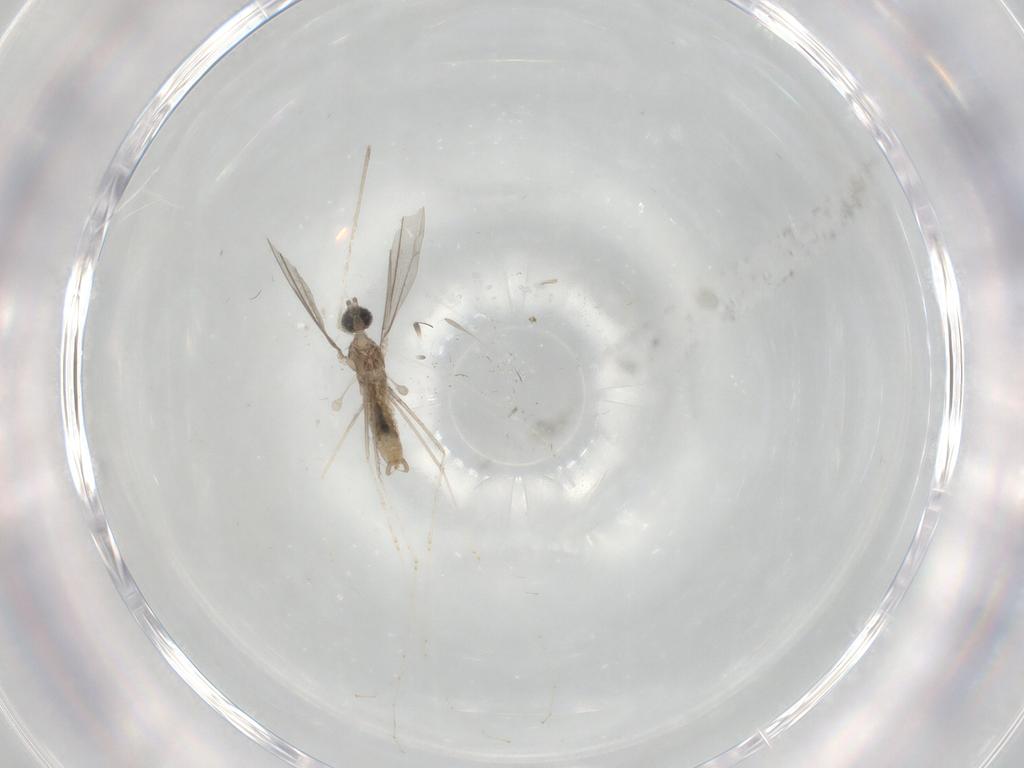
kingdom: Animalia
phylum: Arthropoda
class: Insecta
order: Diptera
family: Cecidomyiidae
